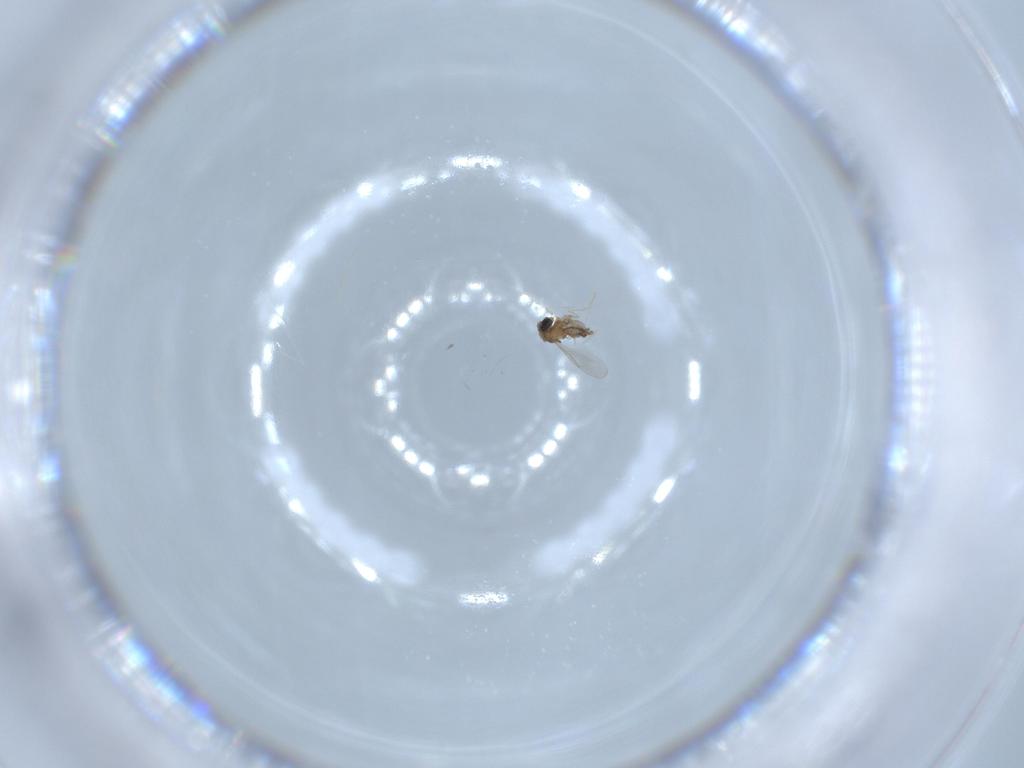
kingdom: Animalia
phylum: Arthropoda
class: Insecta
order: Diptera
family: Cecidomyiidae
